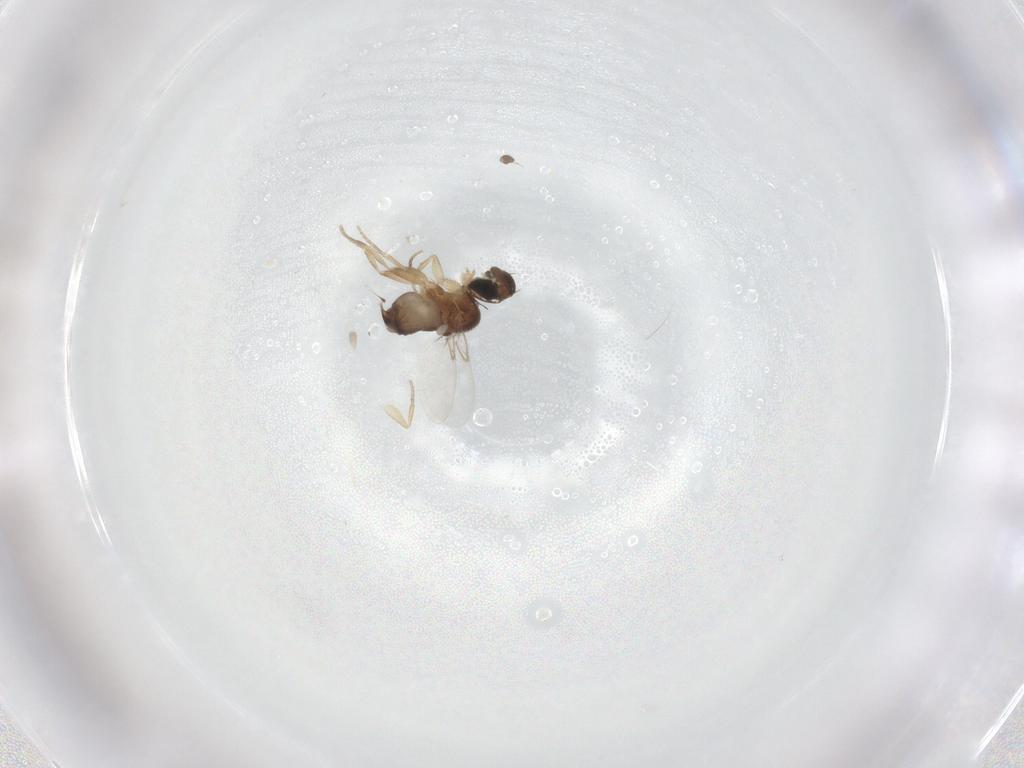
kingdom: Animalia
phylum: Arthropoda
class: Insecta
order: Diptera
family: Phoridae
